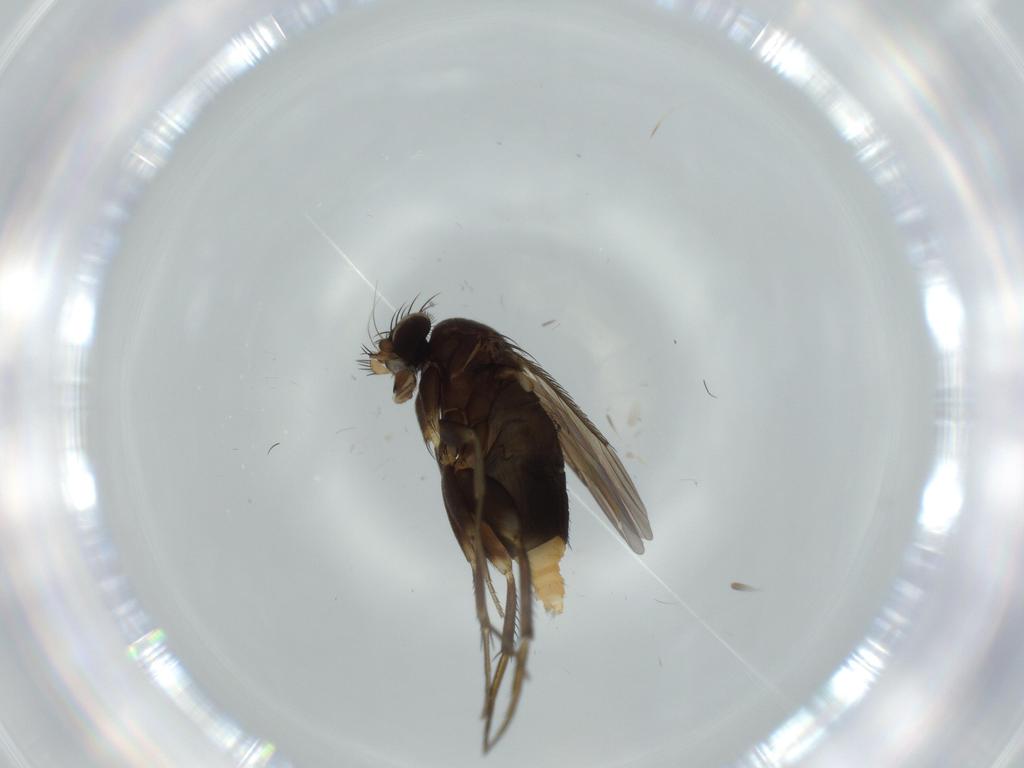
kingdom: Animalia
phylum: Arthropoda
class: Insecta
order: Diptera
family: Phoridae
